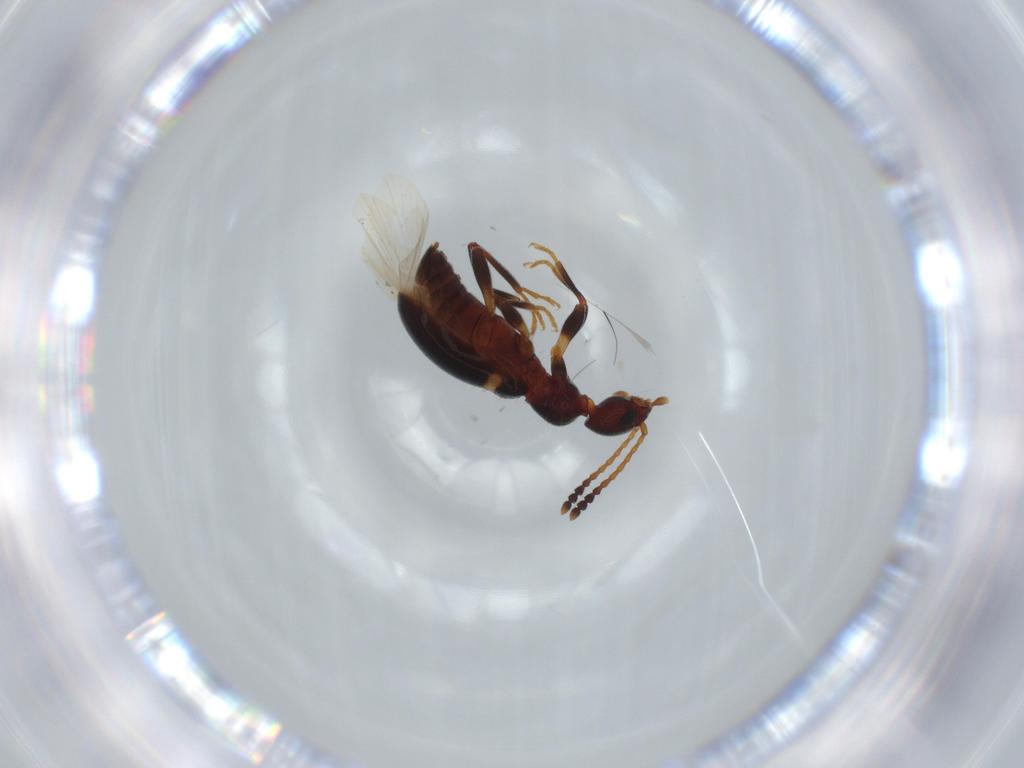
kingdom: Animalia
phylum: Arthropoda
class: Insecta
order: Coleoptera
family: Anthicidae
